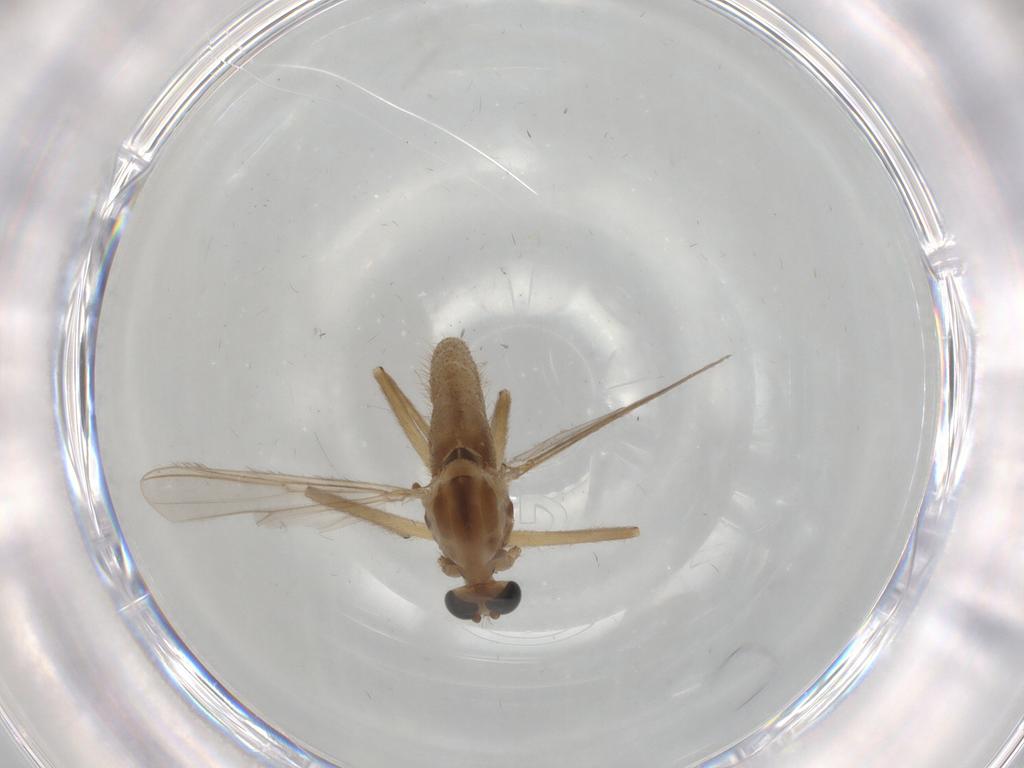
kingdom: Animalia
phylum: Arthropoda
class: Insecta
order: Diptera
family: Chironomidae
